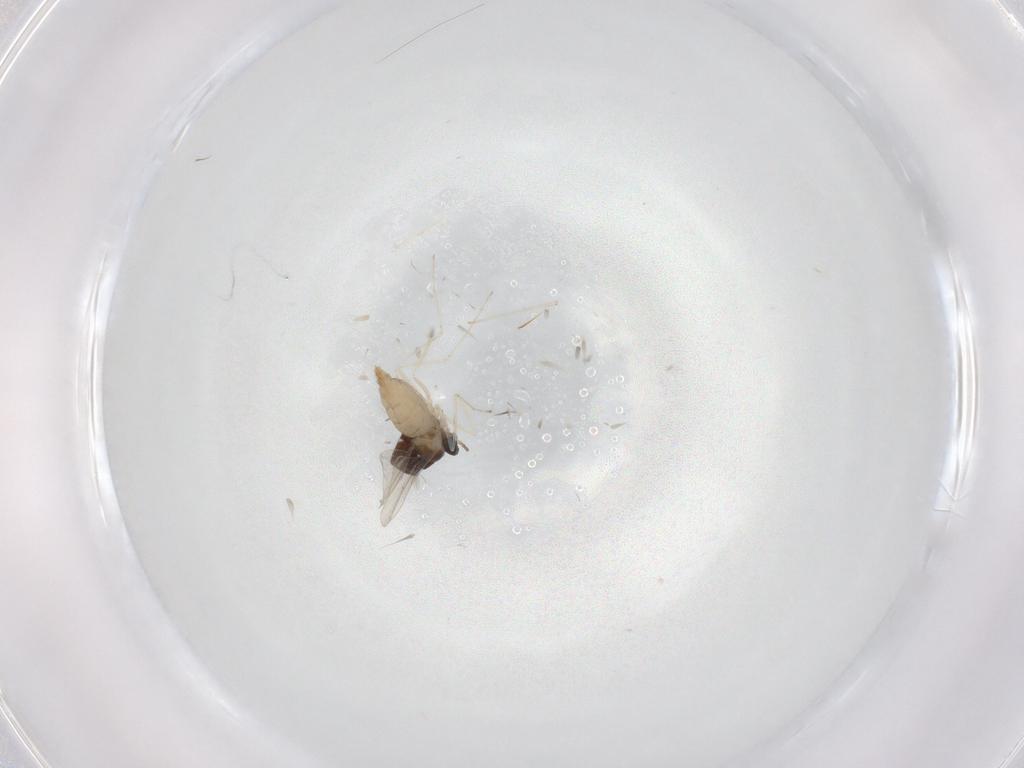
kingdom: Animalia
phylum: Arthropoda
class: Insecta
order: Diptera
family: Cecidomyiidae
